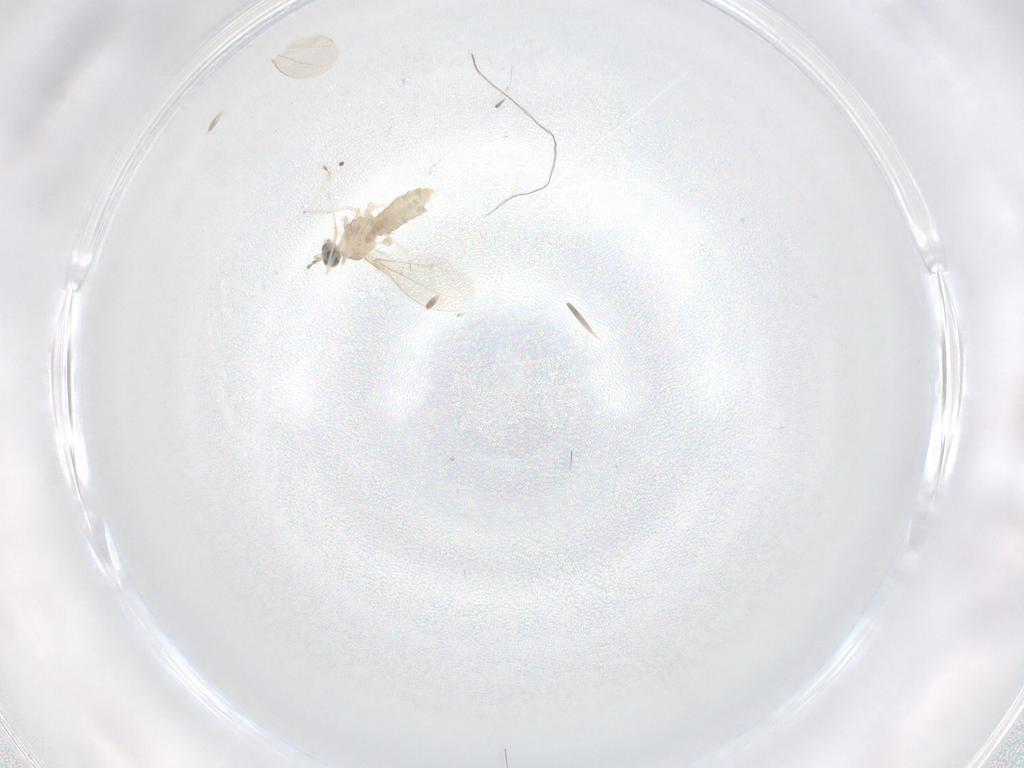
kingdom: Animalia
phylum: Arthropoda
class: Insecta
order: Diptera
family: Cecidomyiidae
